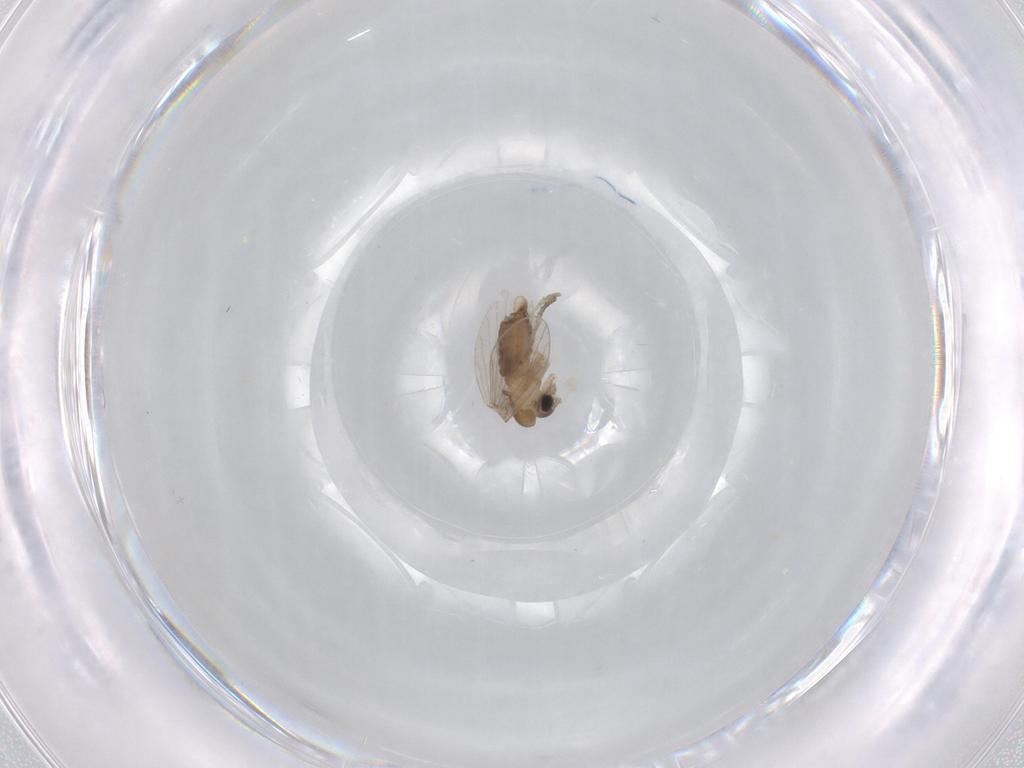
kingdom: Animalia
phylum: Arthropoda
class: Insecta
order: Diptera
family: Psychodidae
